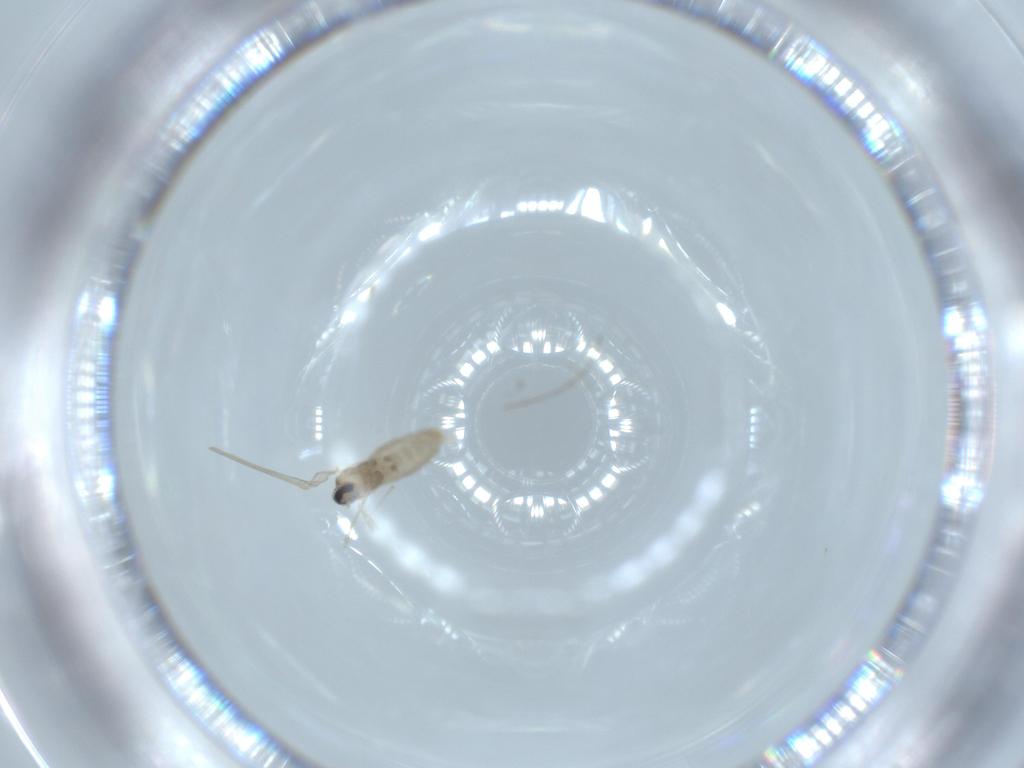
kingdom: Animalia
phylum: Arthropoda
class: Insecta
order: Diptera
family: Cecidomyiidae
